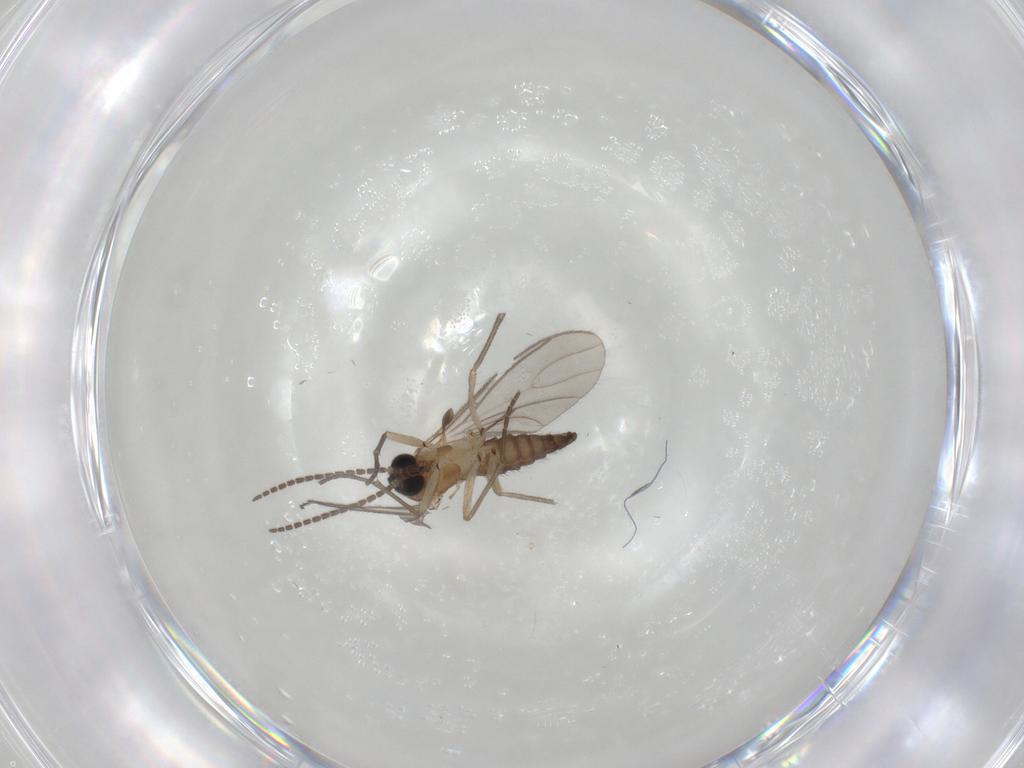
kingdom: Animalia
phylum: Arthropoda
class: Insecta
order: Diptera
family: Sciaridae
